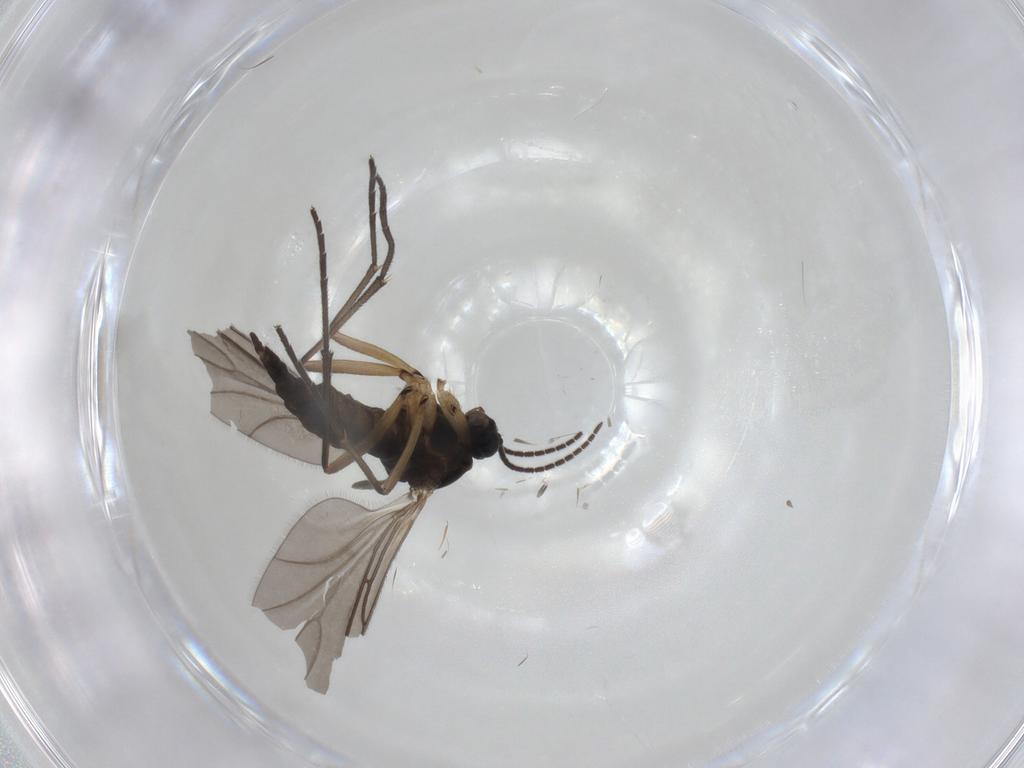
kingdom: Animalia
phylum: Arthropoda
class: Insecta
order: Diptera
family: Sciaridae
